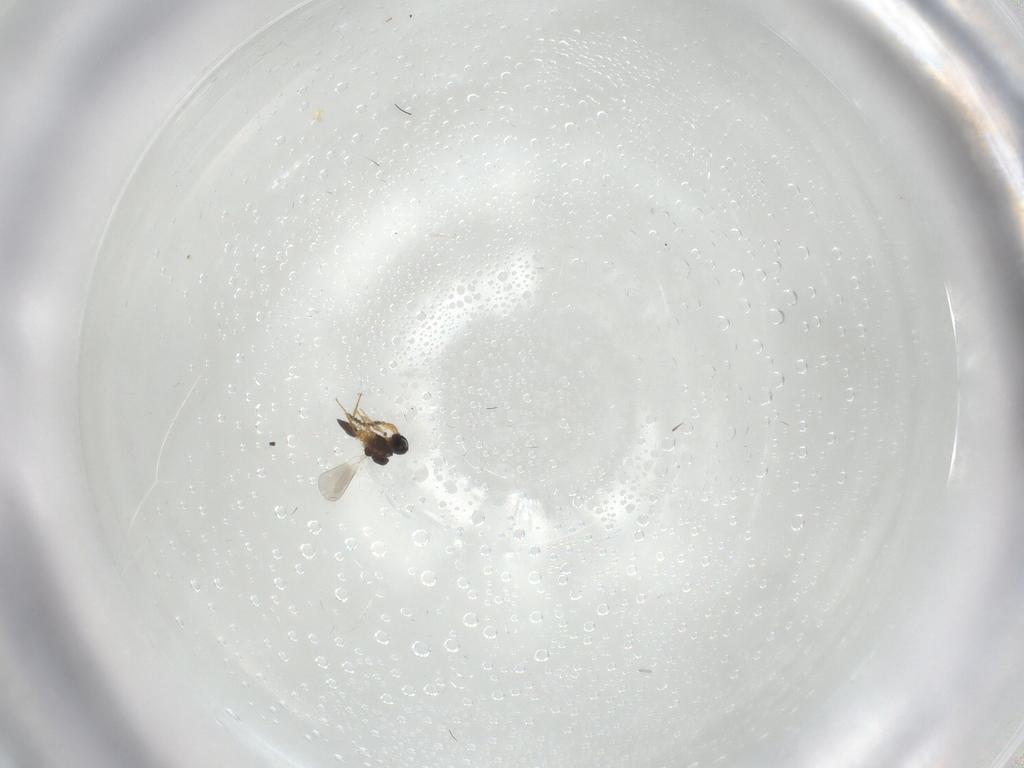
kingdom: Animalia
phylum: Arthropoda
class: Insecta
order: Hymenoptera
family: Platygastridae
